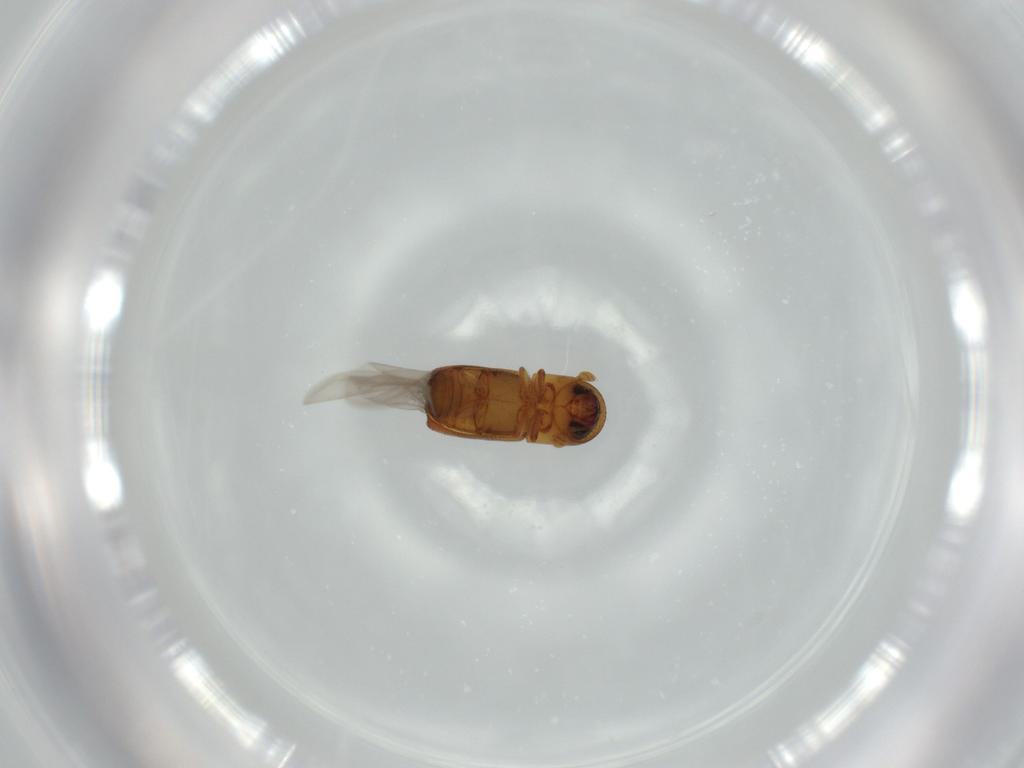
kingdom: Animalia
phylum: Arthropoda
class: Insecta
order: Coleoptera
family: Curculionidae
